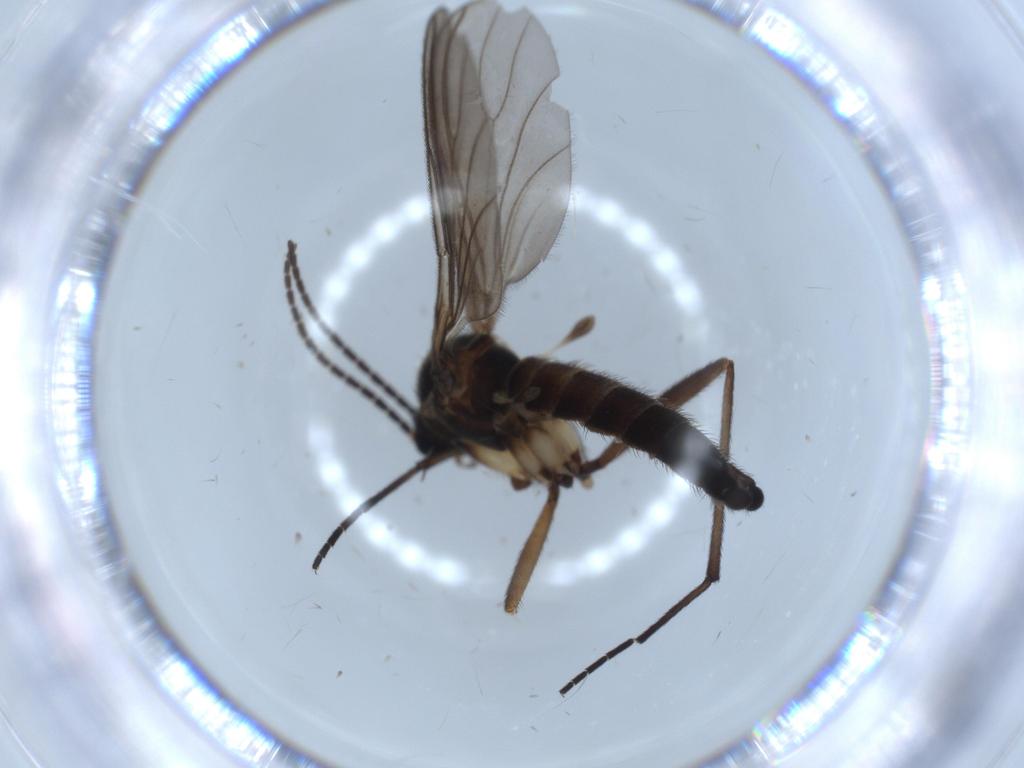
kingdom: Animalia
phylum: Arthropoda
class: Insecta
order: Diptera
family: Sciaridae
